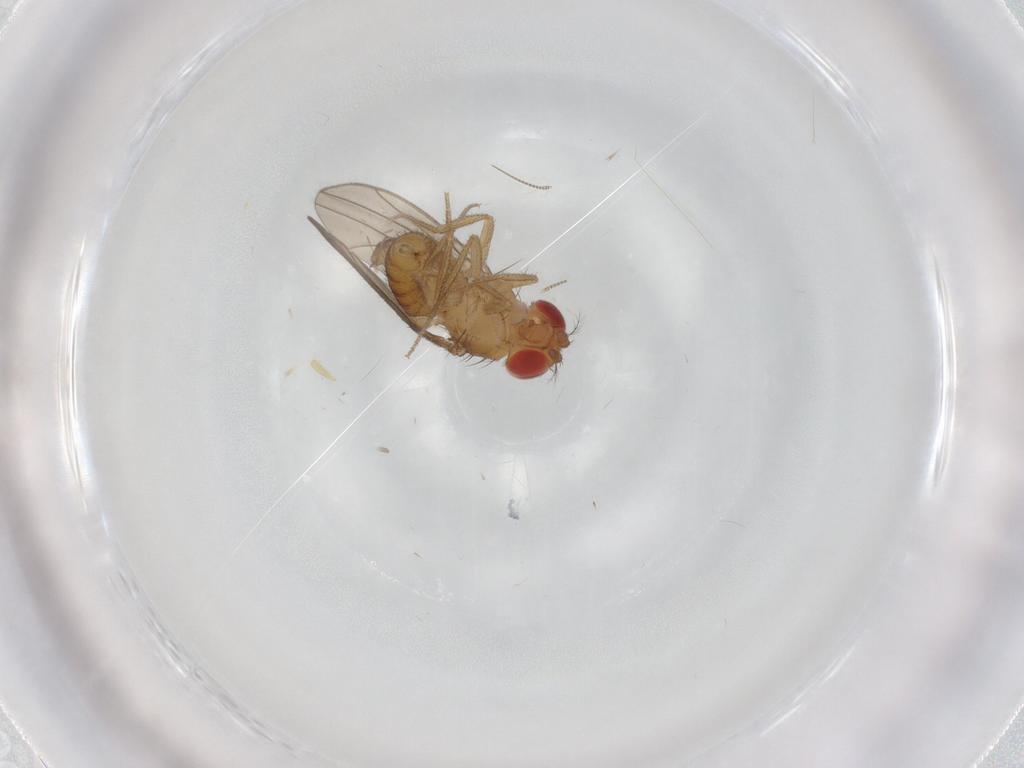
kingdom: Animalia
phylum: Arthropoda
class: Insecta
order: Diptera
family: Drosophilidae
